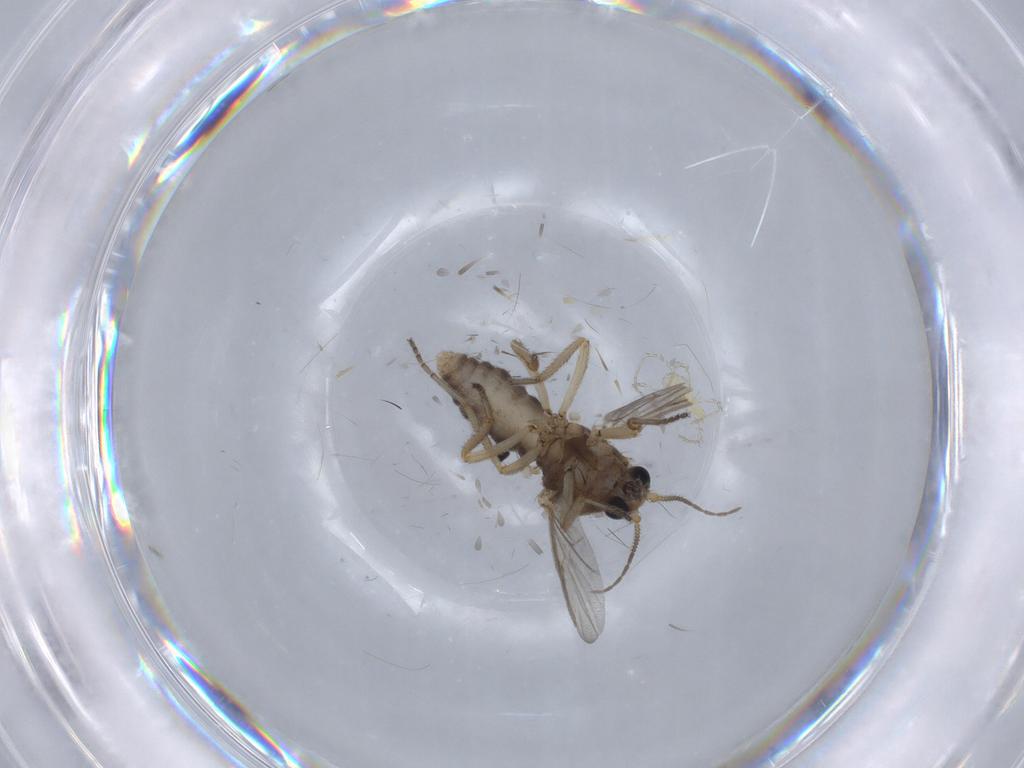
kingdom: Animalia
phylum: Arthropoda
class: Insecta
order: Diptera
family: Ceratopogonidae
